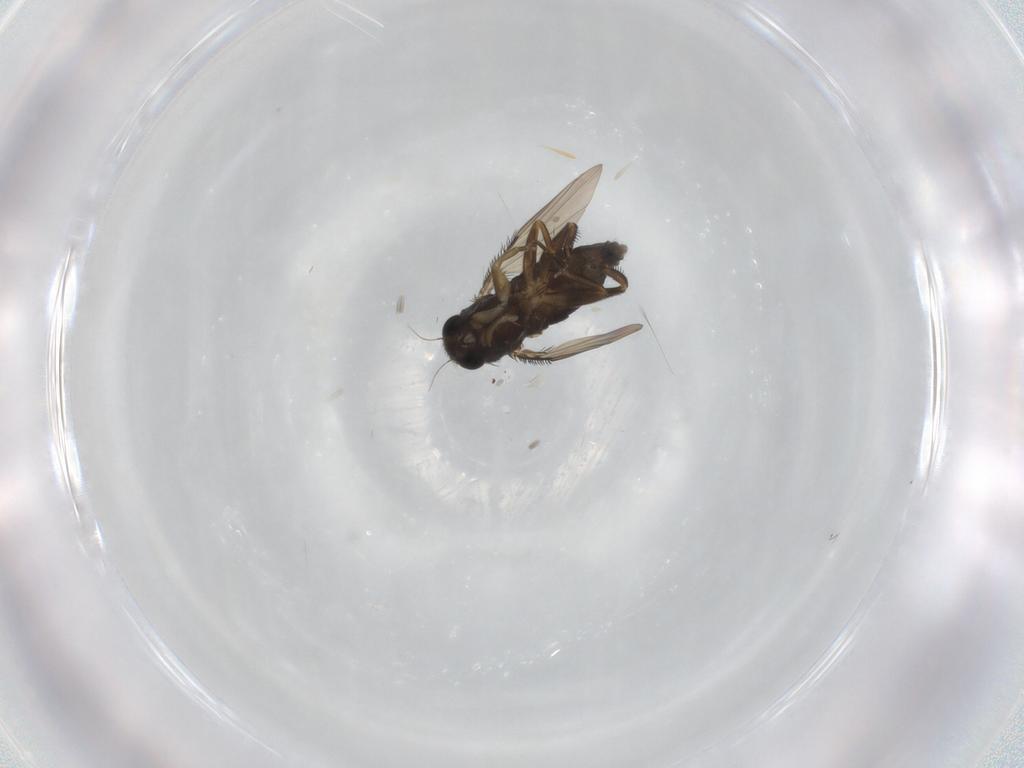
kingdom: Animalia
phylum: Arthropoda
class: Insecta
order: Diptera
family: Phoridae
